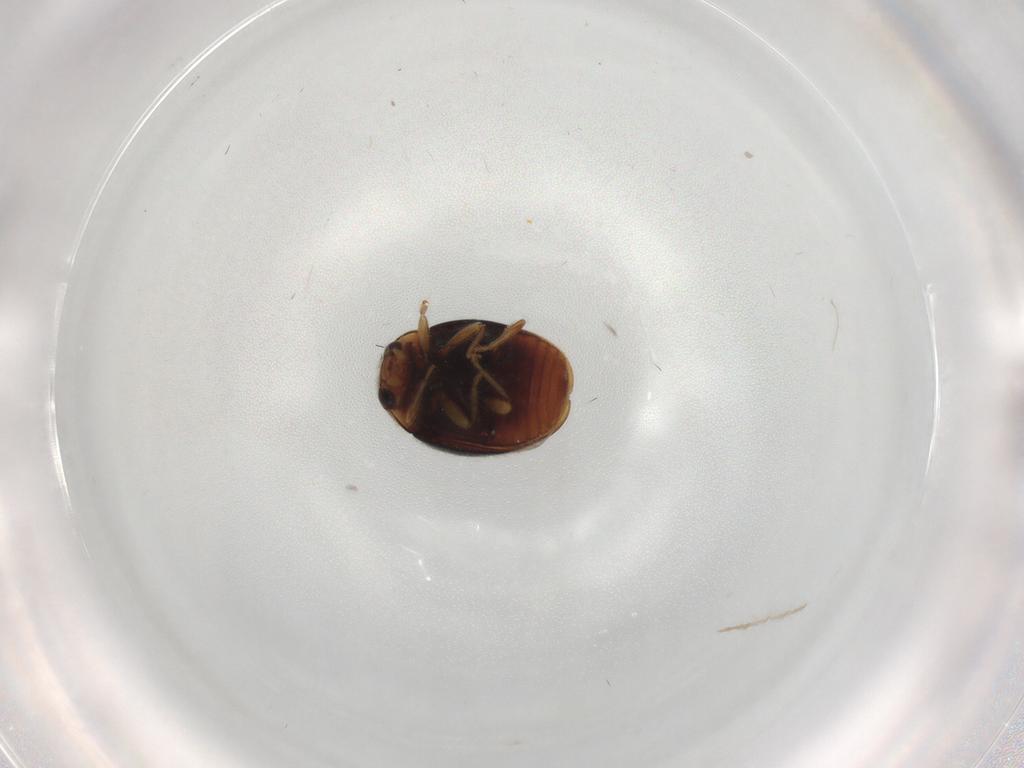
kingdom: Animalia
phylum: Arthropoda
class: Insecta
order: Coleoptera
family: Coccinellidae
